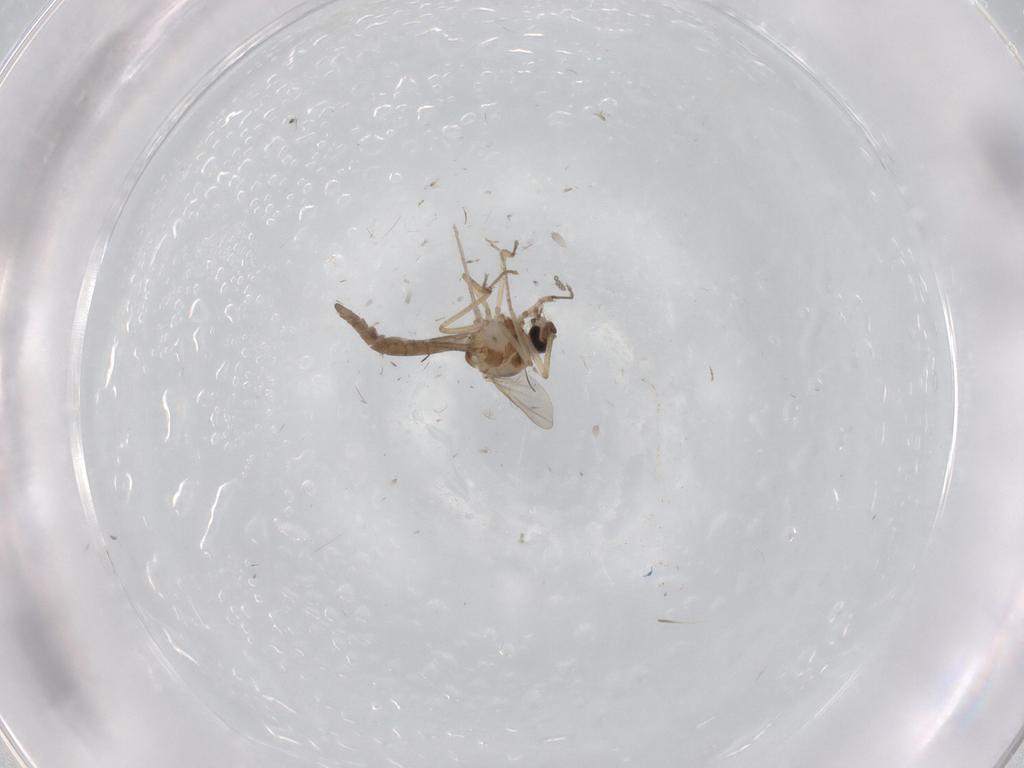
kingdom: Animalia
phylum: Arthropoda
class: Insecta
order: Diptera
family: Ceratopogonidae
